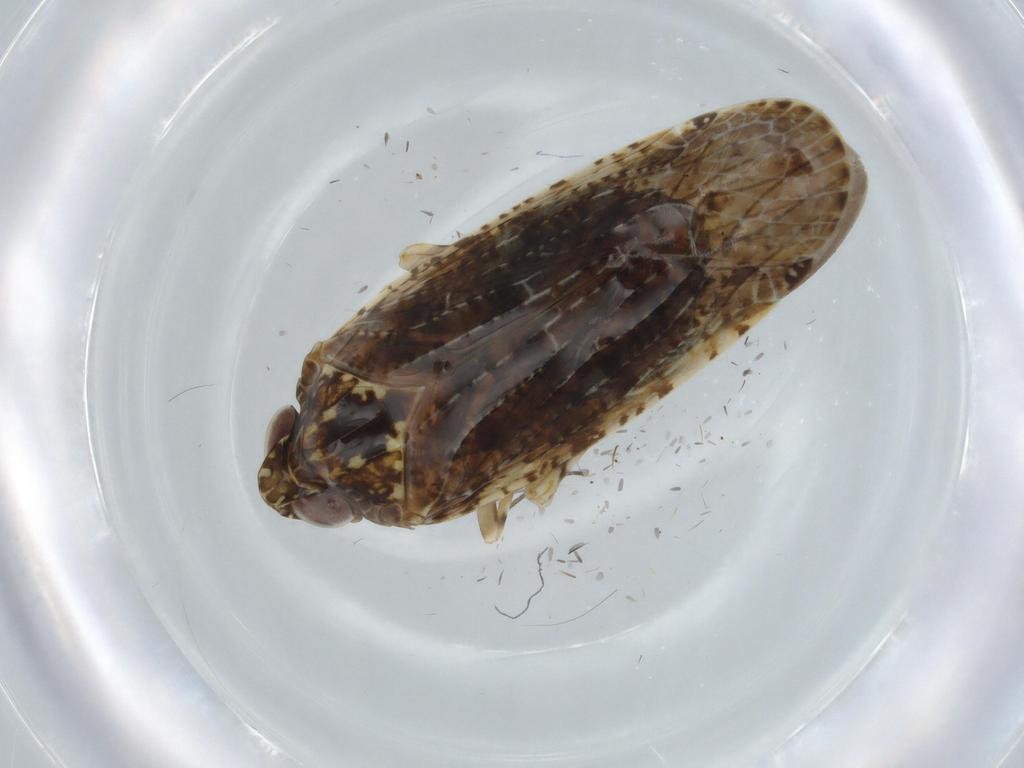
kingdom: Animalia
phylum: Arthropoda
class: Insecta
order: Hemiptera
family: Achilidae
